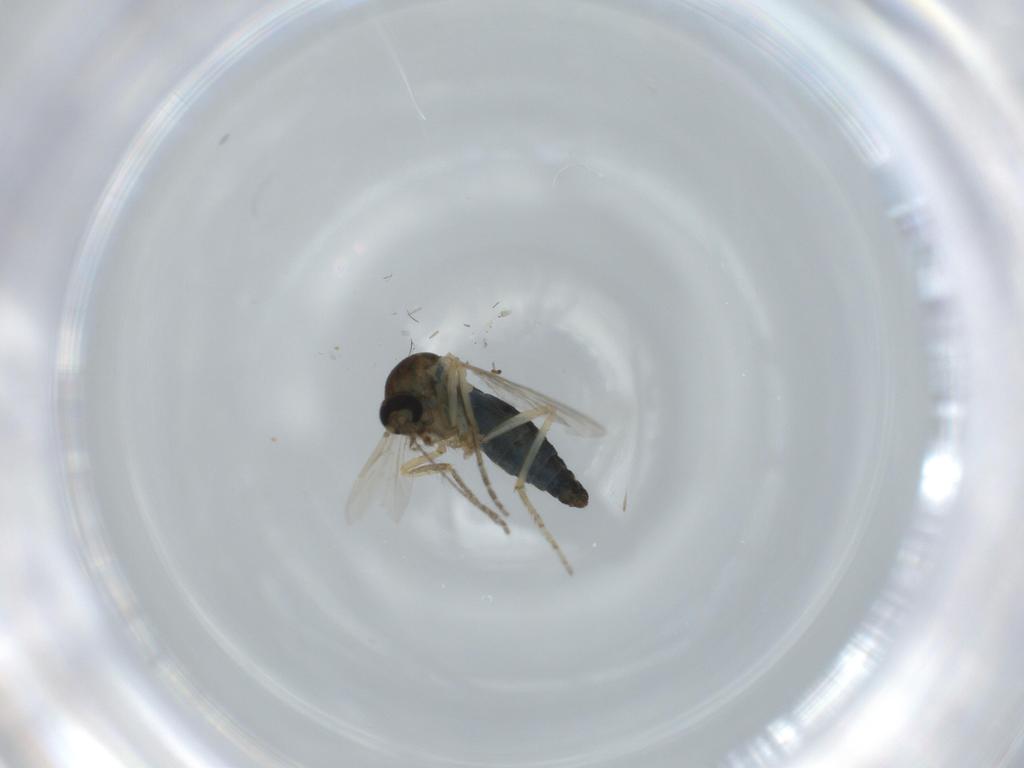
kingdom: Animalia
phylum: Arthropoda
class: Insecta
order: Diptera
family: Ceratopogonidae
